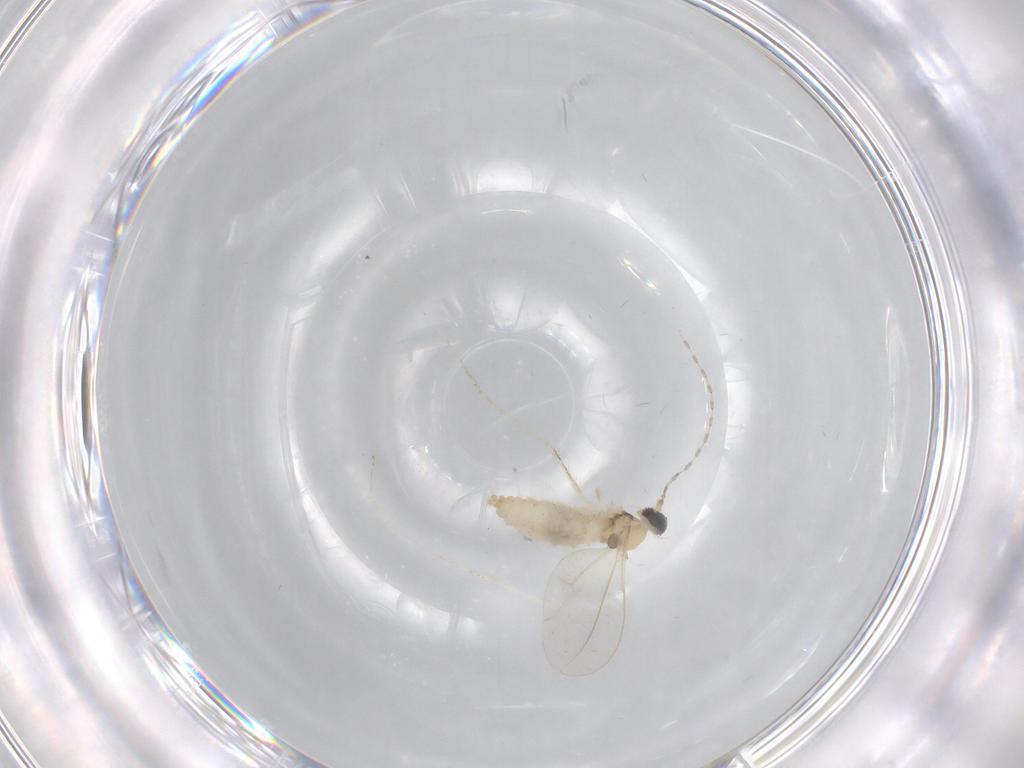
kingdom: Animalia
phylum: Arthropoda
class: Insecta
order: Diptera
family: Cecidomyiidae
